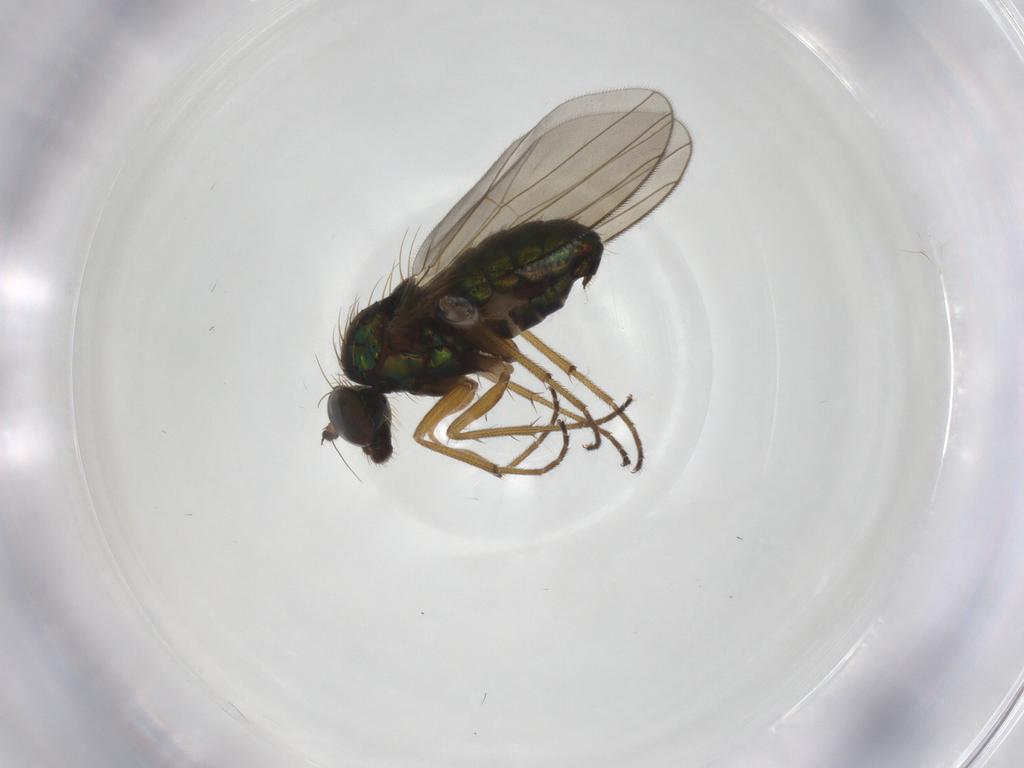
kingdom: Animalia
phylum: Arthropoda
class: Insecta
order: Diptera
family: Dolichopodidae
